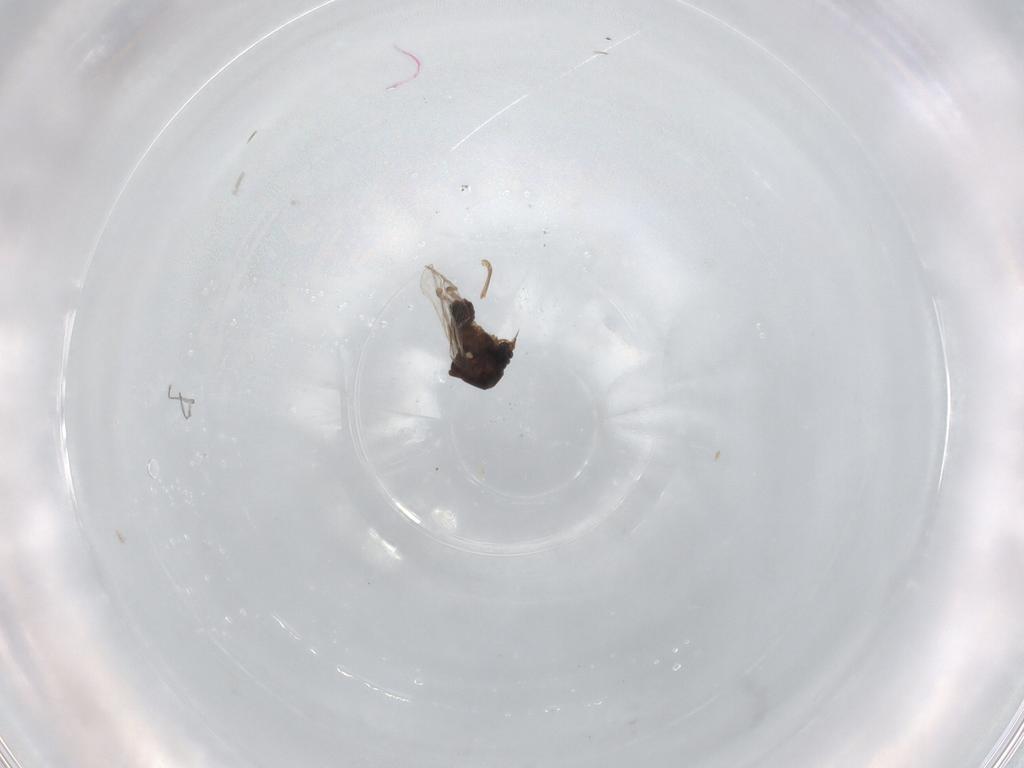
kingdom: Animalia
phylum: Arthropoda
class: Insecta
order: Diptera
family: Ceratopogonidae
